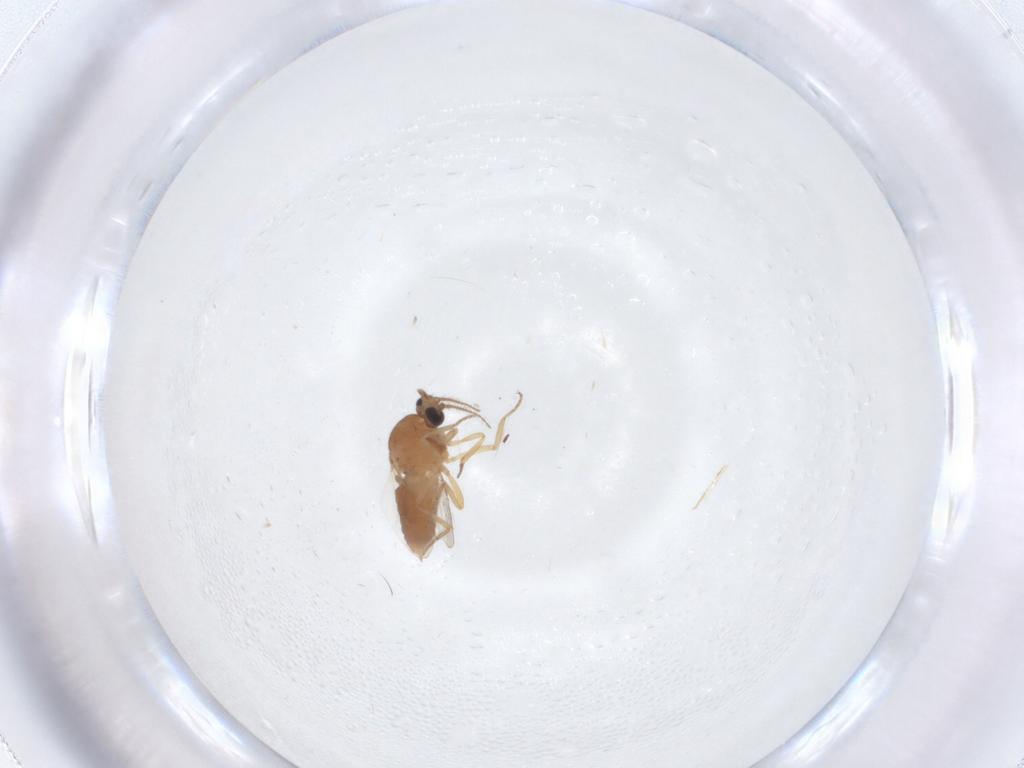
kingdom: Animalia
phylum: Arthropoda
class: Insecta
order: Diptera
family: Ceratopogonidae
